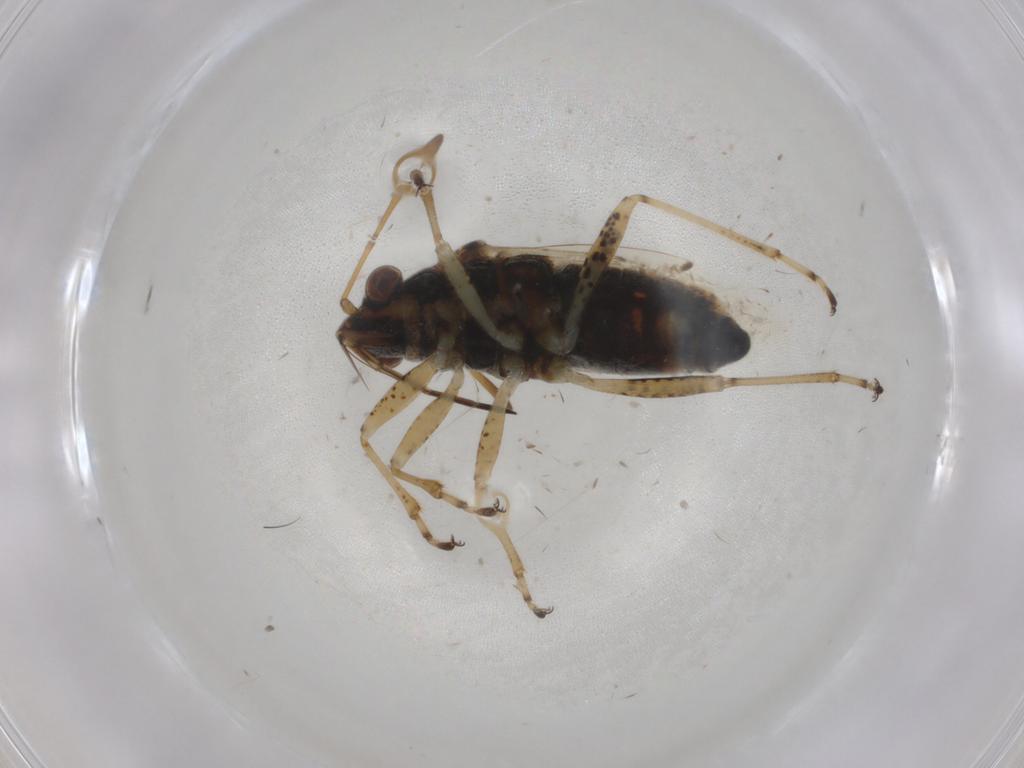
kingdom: Animalia
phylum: Arthropoda
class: Insecta
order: Hemiptera
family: Lygaeidae
